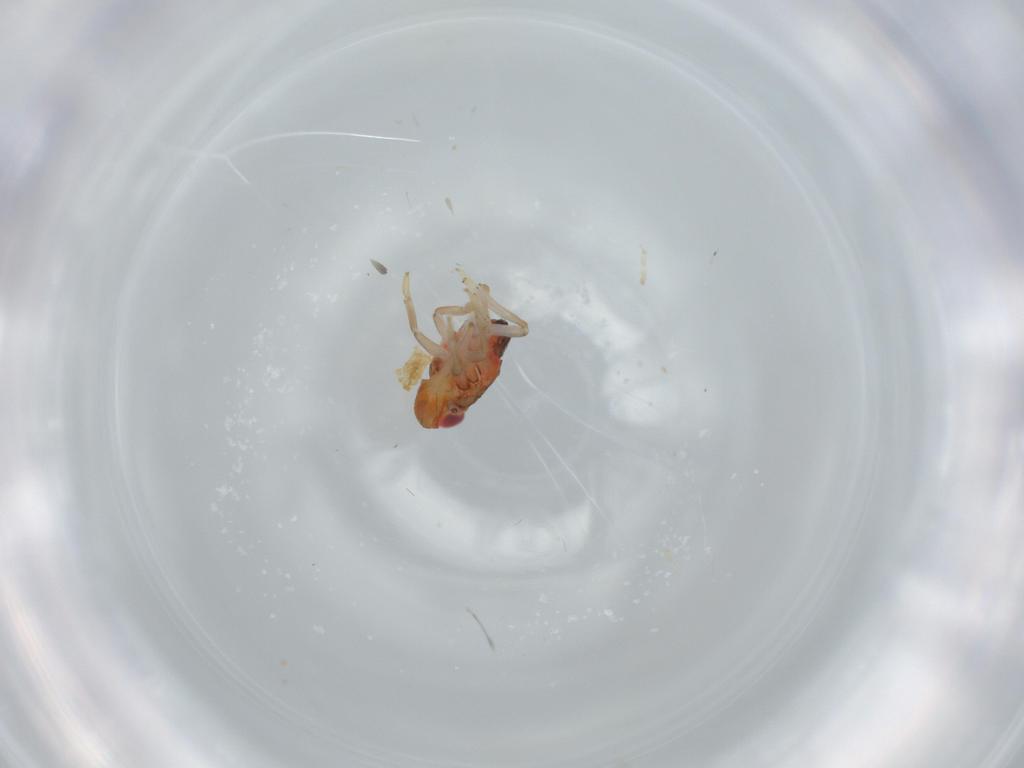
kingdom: Animalia
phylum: Arthropoda
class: Insecta
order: Hemiptera
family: Issidae
